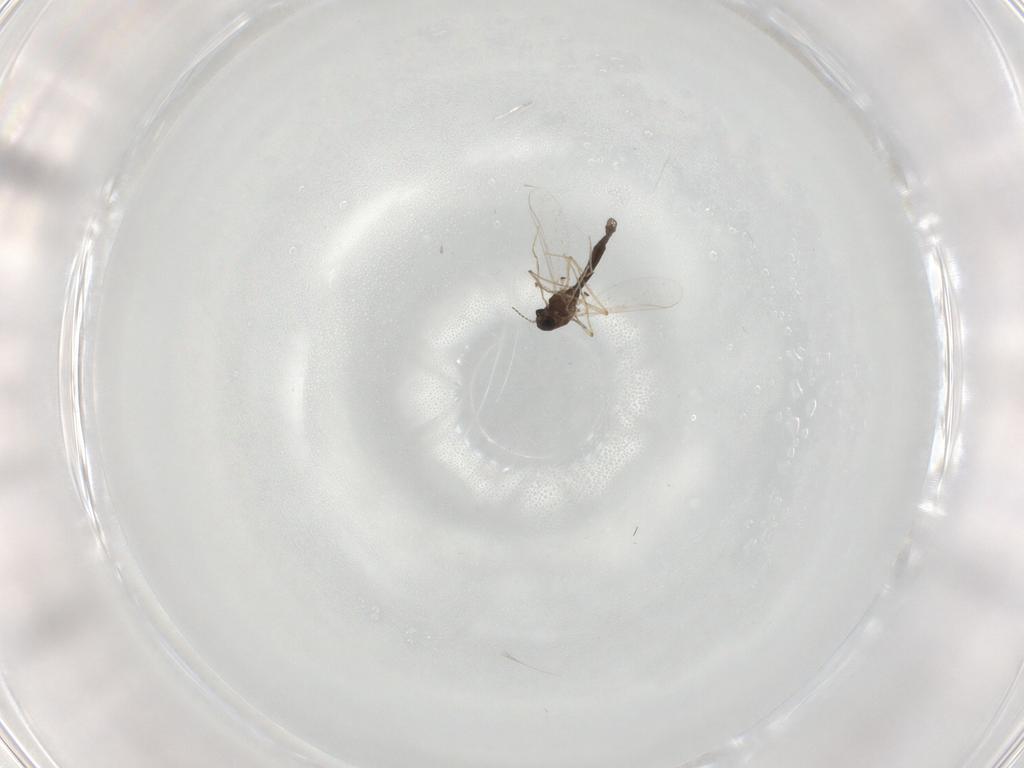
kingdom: Animalia
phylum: Arthropoda
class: Insecta
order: Diptera
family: Chironomidae
